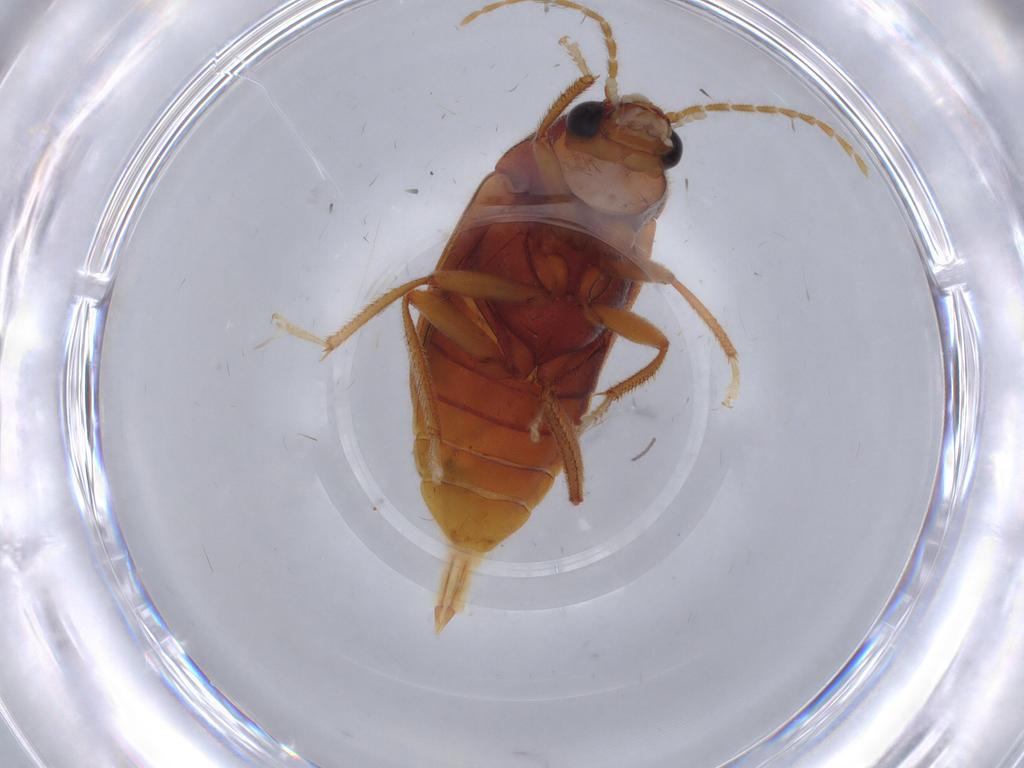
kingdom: Animalia
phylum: Arthropoda
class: Insecta
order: Coleoptera
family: Ptilodactylidae
